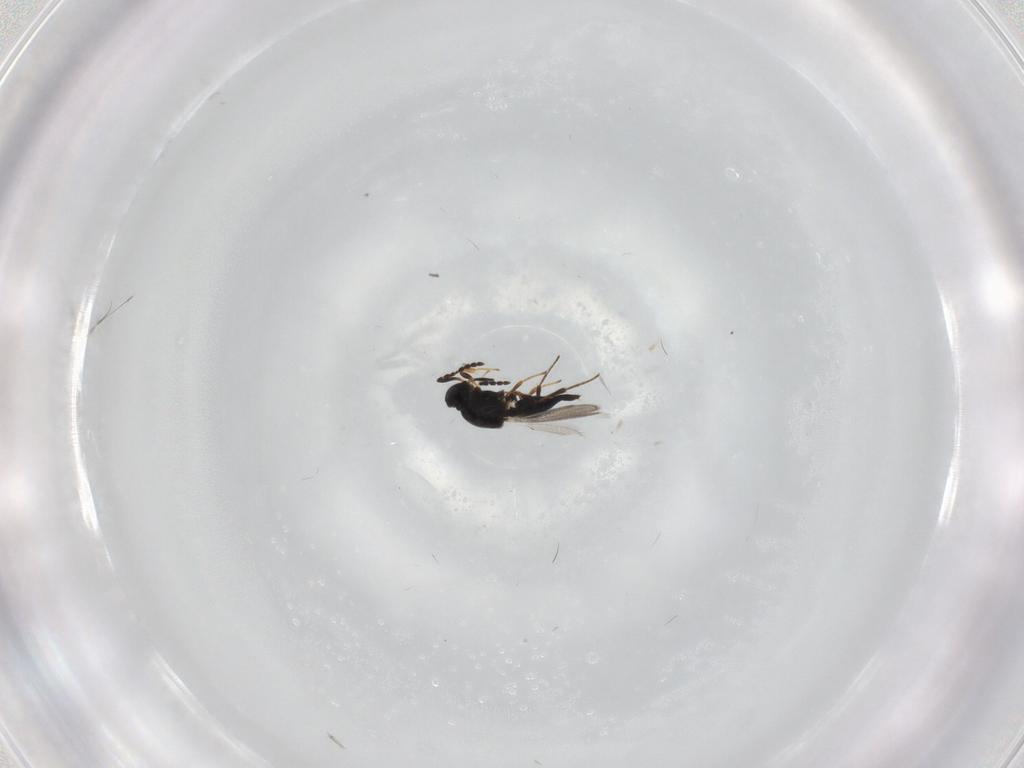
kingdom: Animalia
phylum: Arthropoda
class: Insecta
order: Hymenoptera
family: Platygastridae
